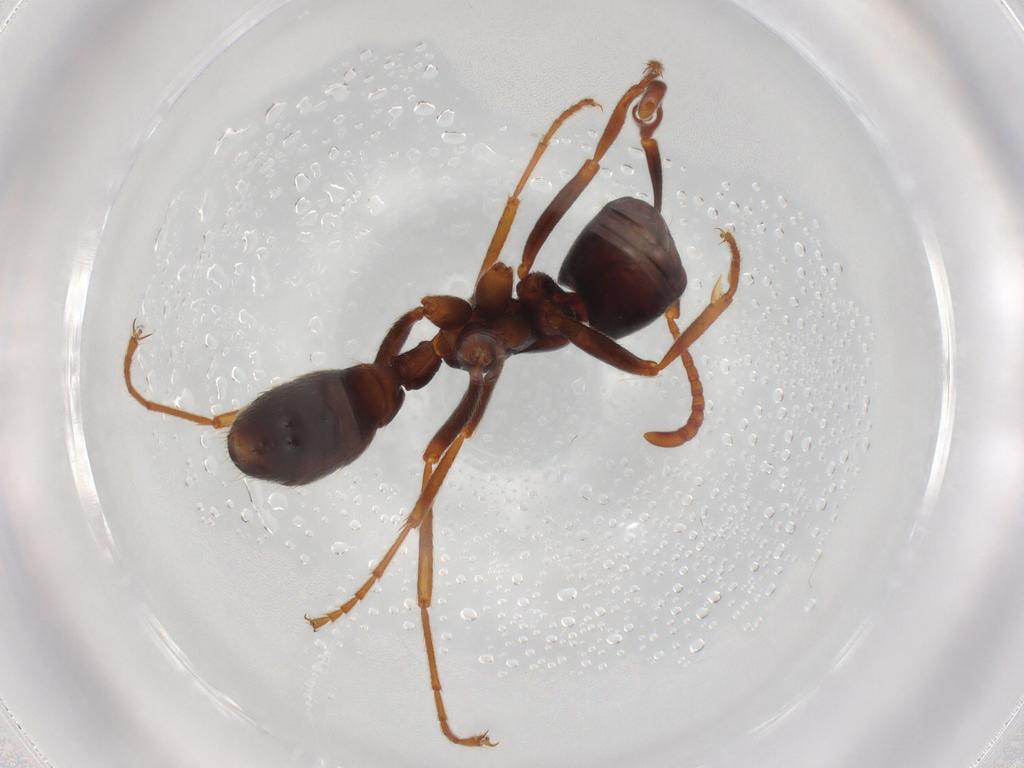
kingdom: Animalia
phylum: Arthropoda
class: Insecta
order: Hymenoptera
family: Formicidae
